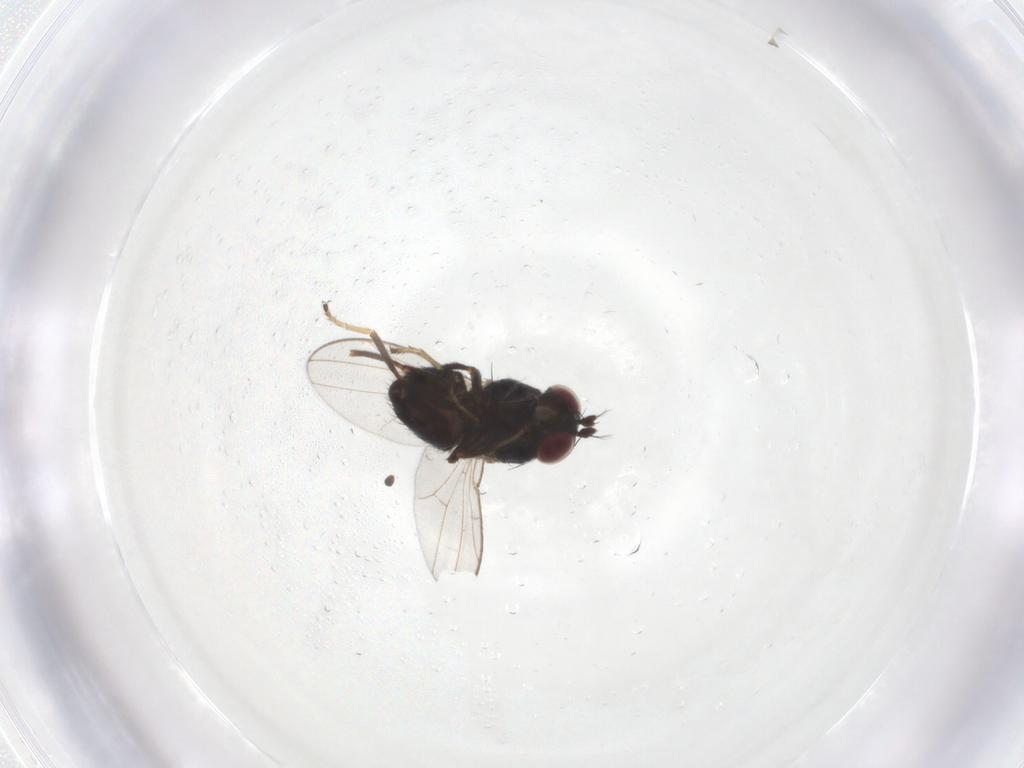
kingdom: Animalia
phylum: Arthropoda
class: Insecta
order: Diptera
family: Ephydridae
